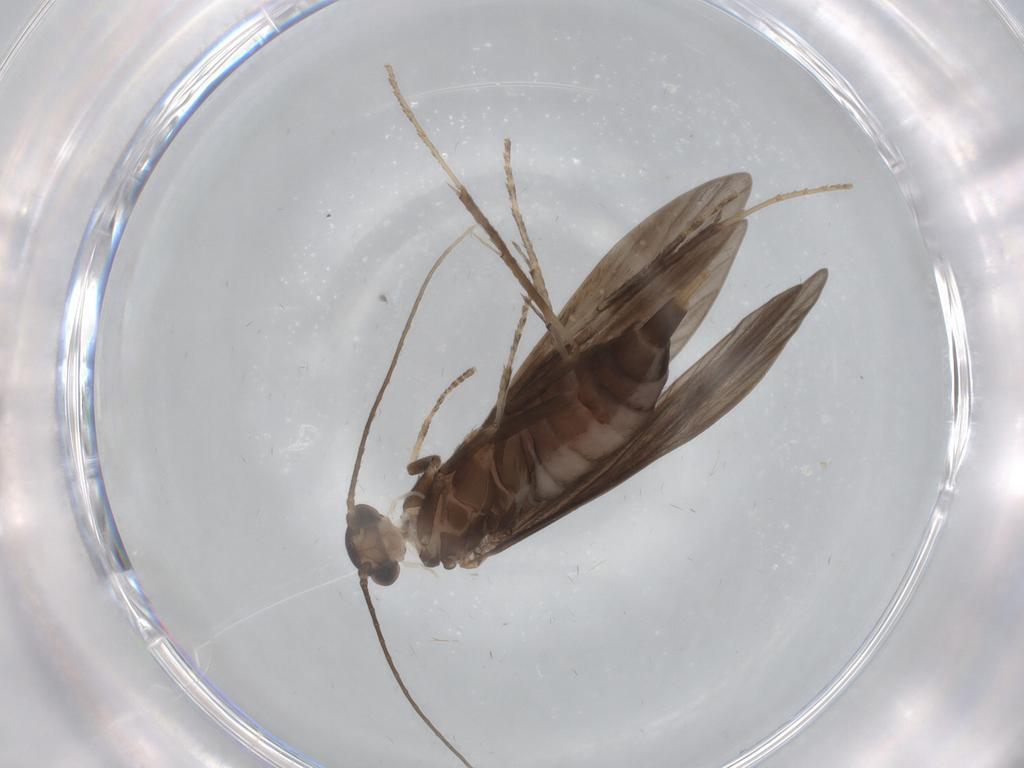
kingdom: Animalia
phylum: Arthropoda
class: Insecta
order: Trichoptera
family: Xiphocentronidae
